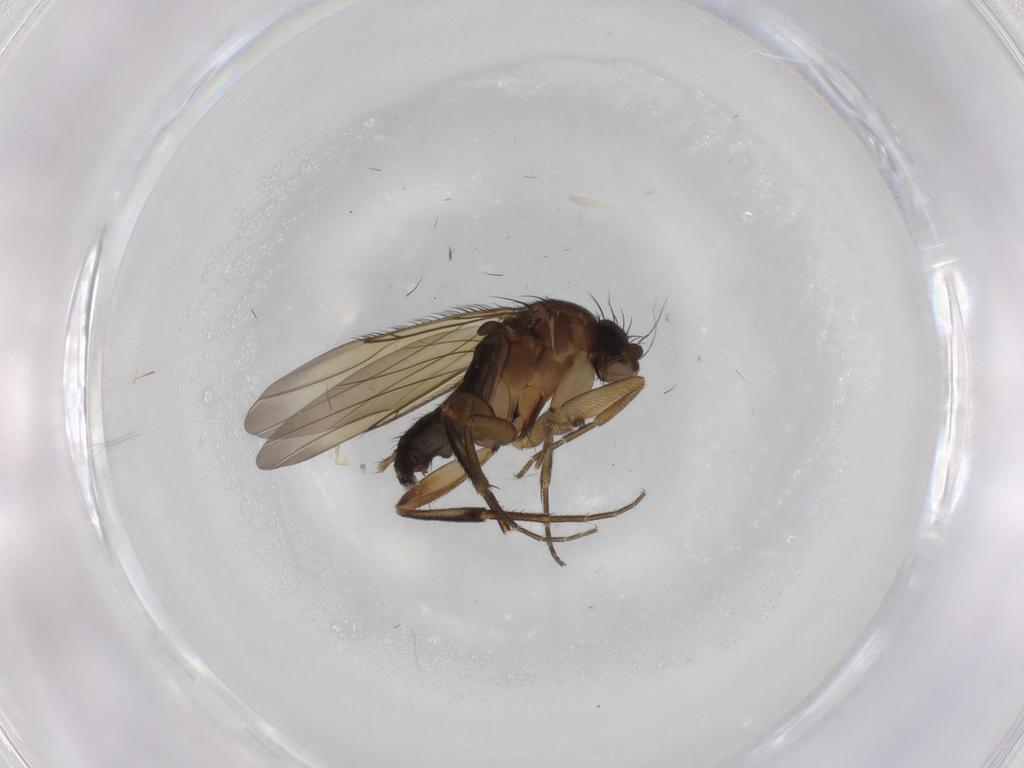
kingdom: Animalia
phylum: Arthropoda
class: Insecta
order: Diptera
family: Phoridae
